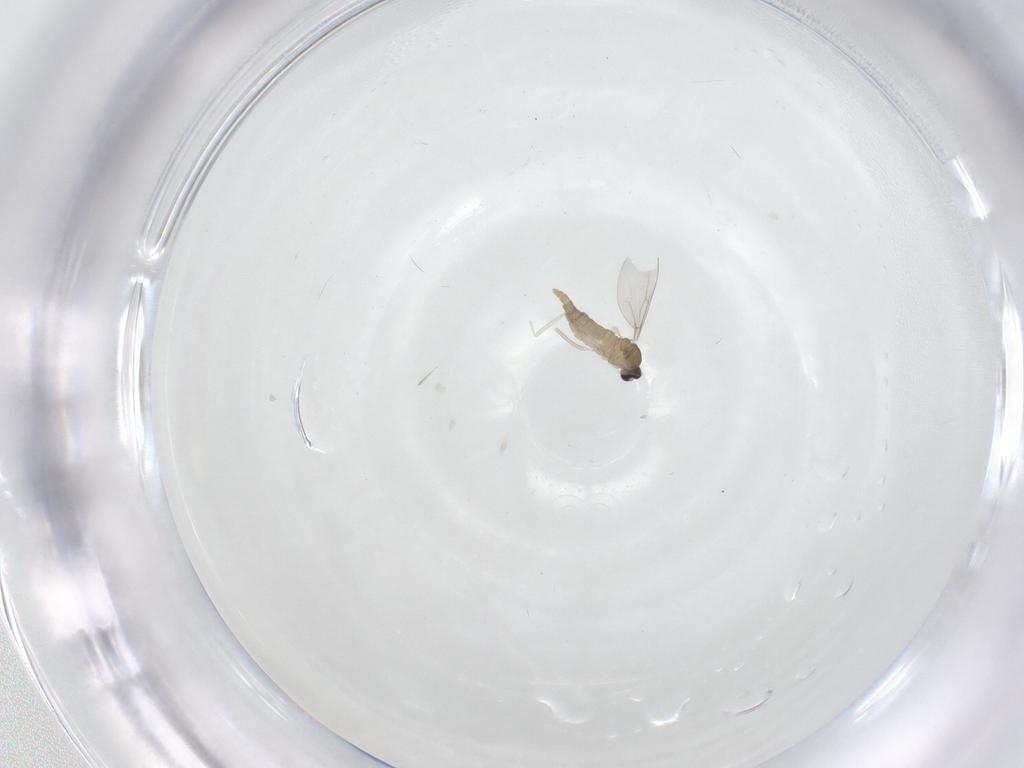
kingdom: Animalia
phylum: Arthropoda
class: Insecta
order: Diptera
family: Cecidomyiidae
